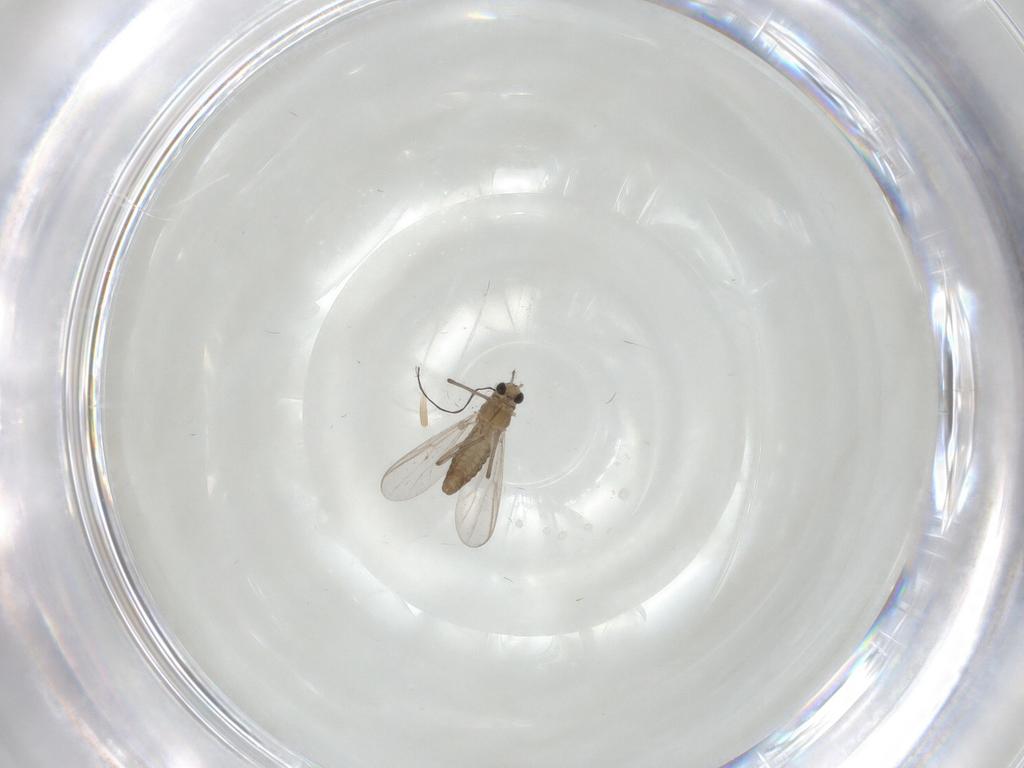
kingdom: Animalia
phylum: Arthropoda
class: Insecta
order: Diptera
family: Chironomidae
